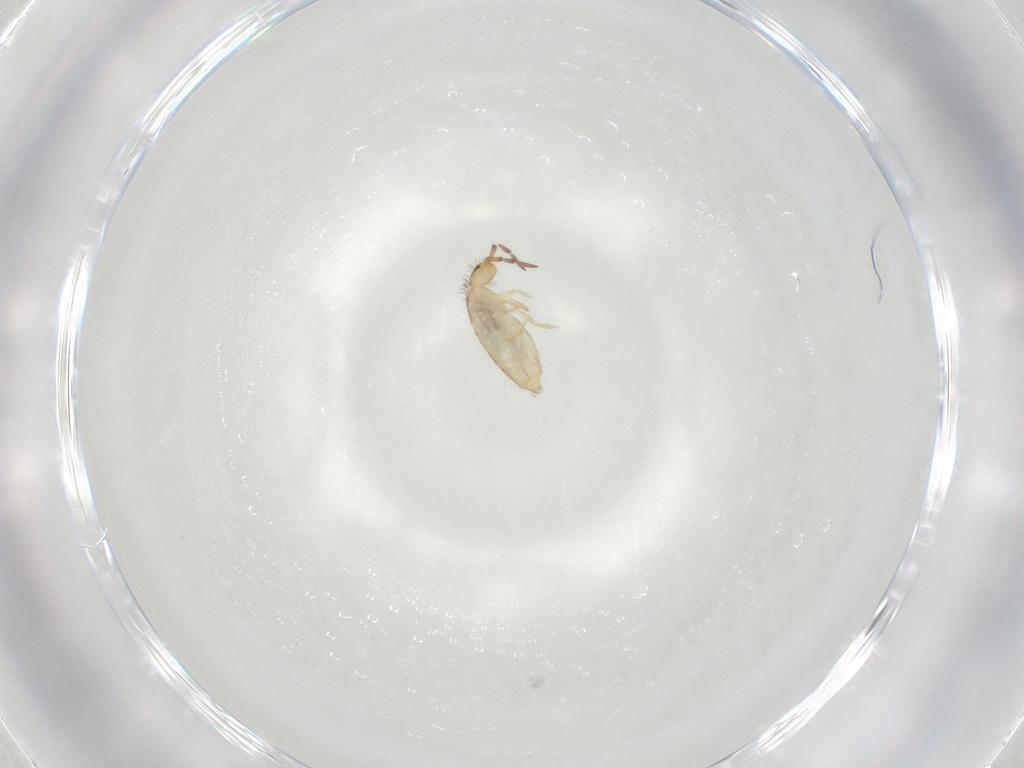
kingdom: Animalia
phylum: Arthropoda
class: Collembola
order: Entomobryomorpha
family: Entomobryidae
